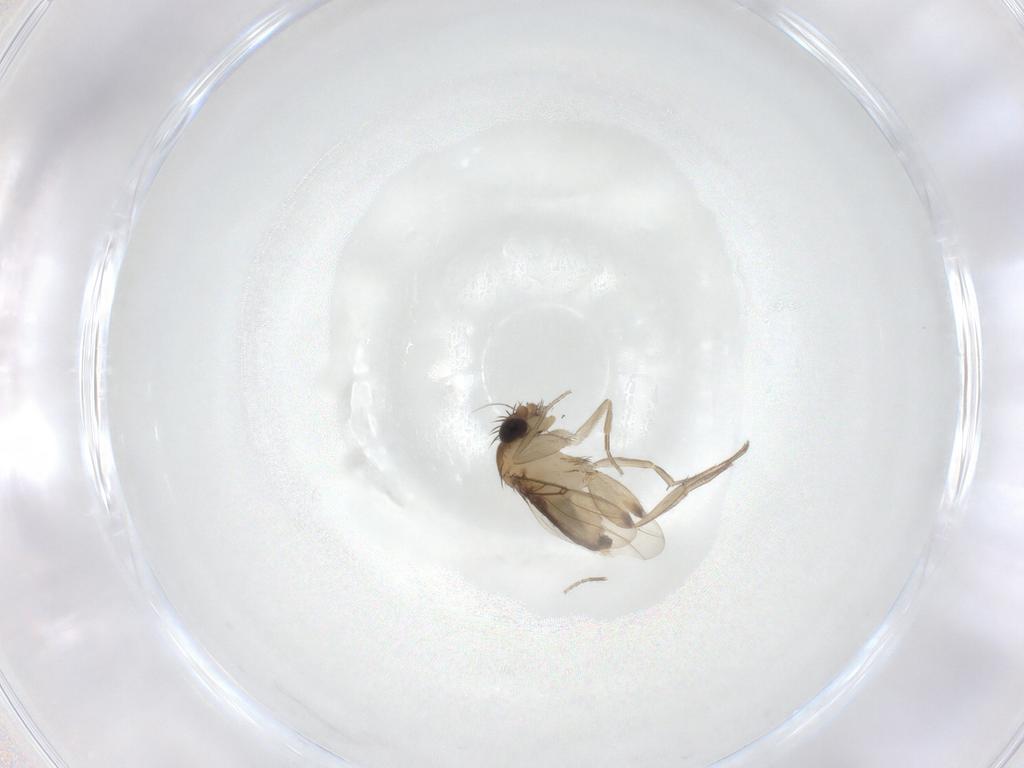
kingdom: Animalia
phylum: Arthropoda
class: Insecta
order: Diptera
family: Phoridae
